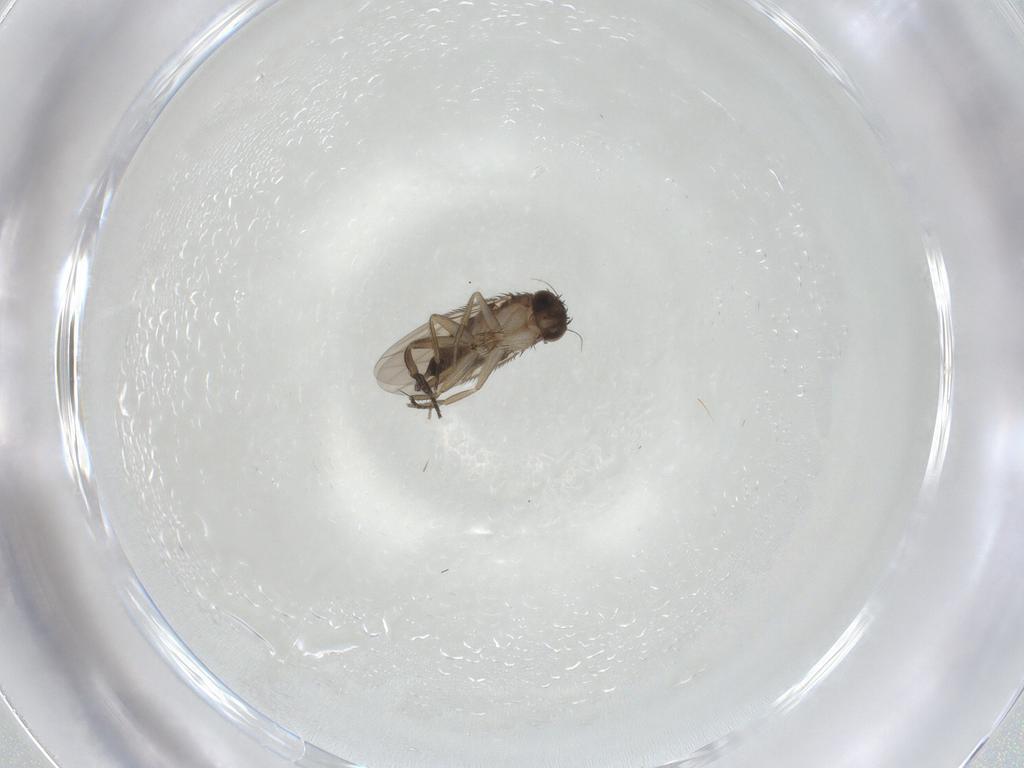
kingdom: Animalia
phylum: Arthropoda
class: Insecta
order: Diptera
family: Phoridae
